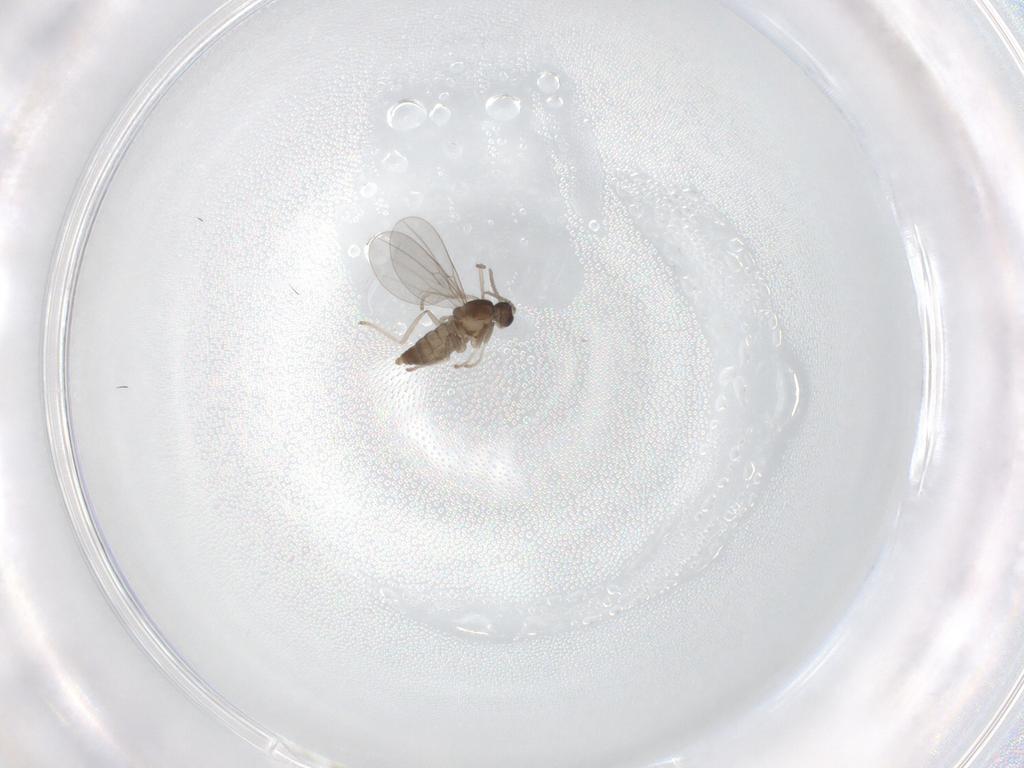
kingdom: Animalia
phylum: Arthropoda
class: Insecta
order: Diptera
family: Cecidomyiidae
